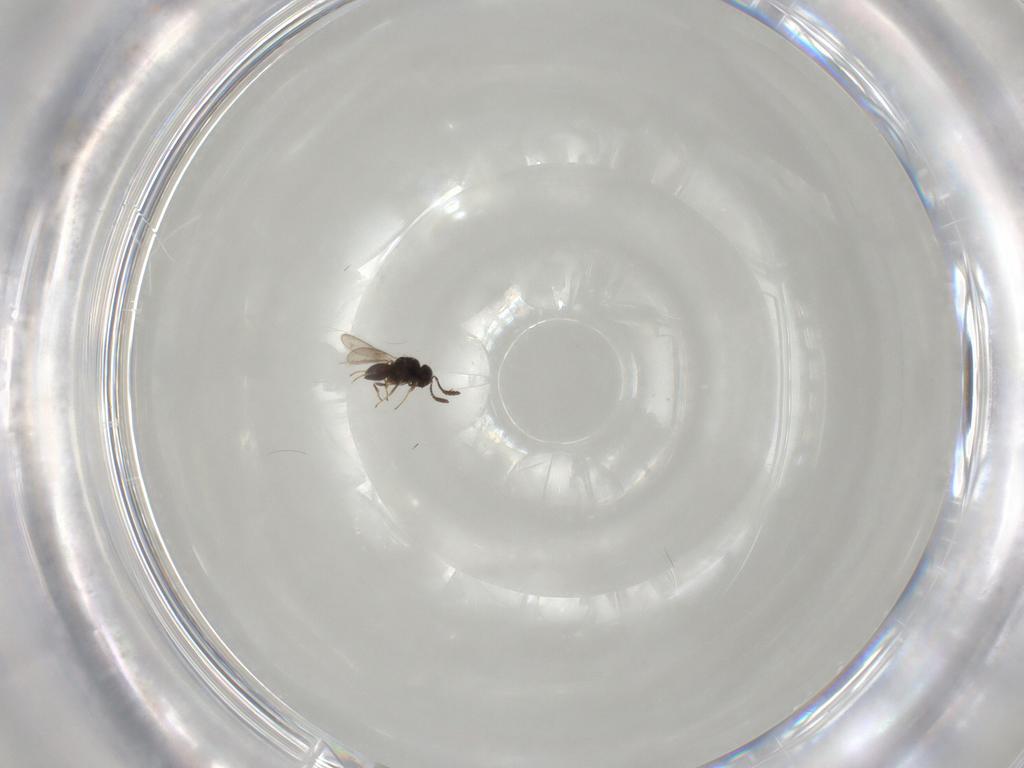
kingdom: Animalia
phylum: Arthropoda
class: Insecta
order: Hymenoptera
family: Scelionidae
